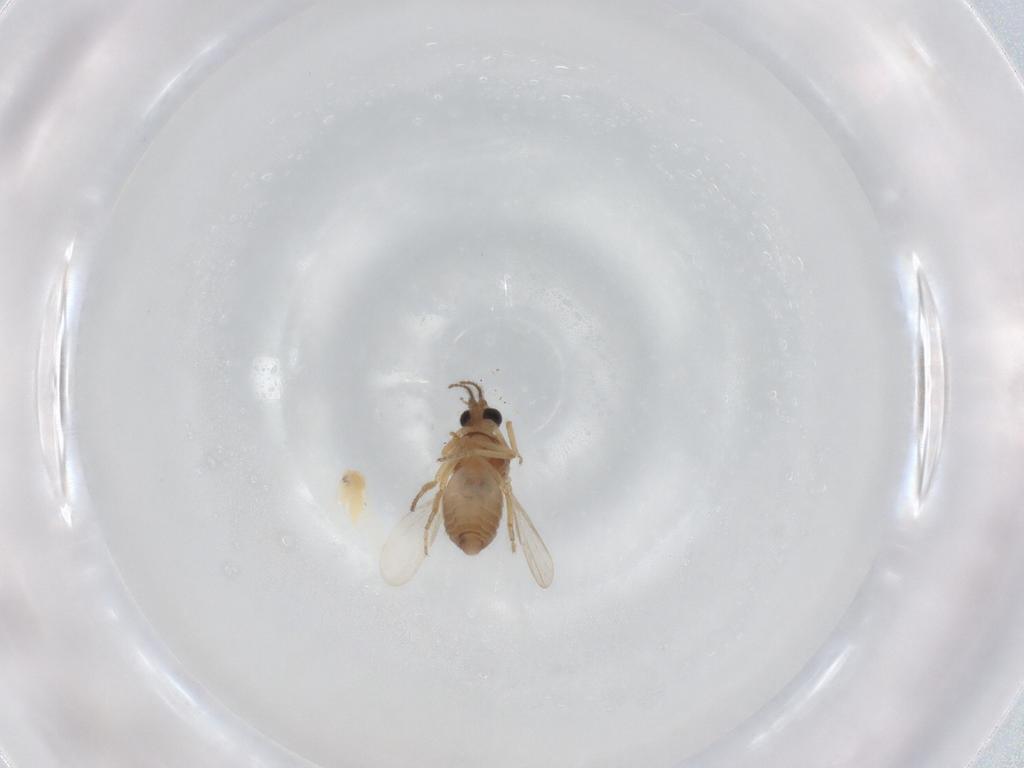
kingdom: Animalia
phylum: Arthropoda
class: Insecta
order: Diptera
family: Ceratopogonidae
